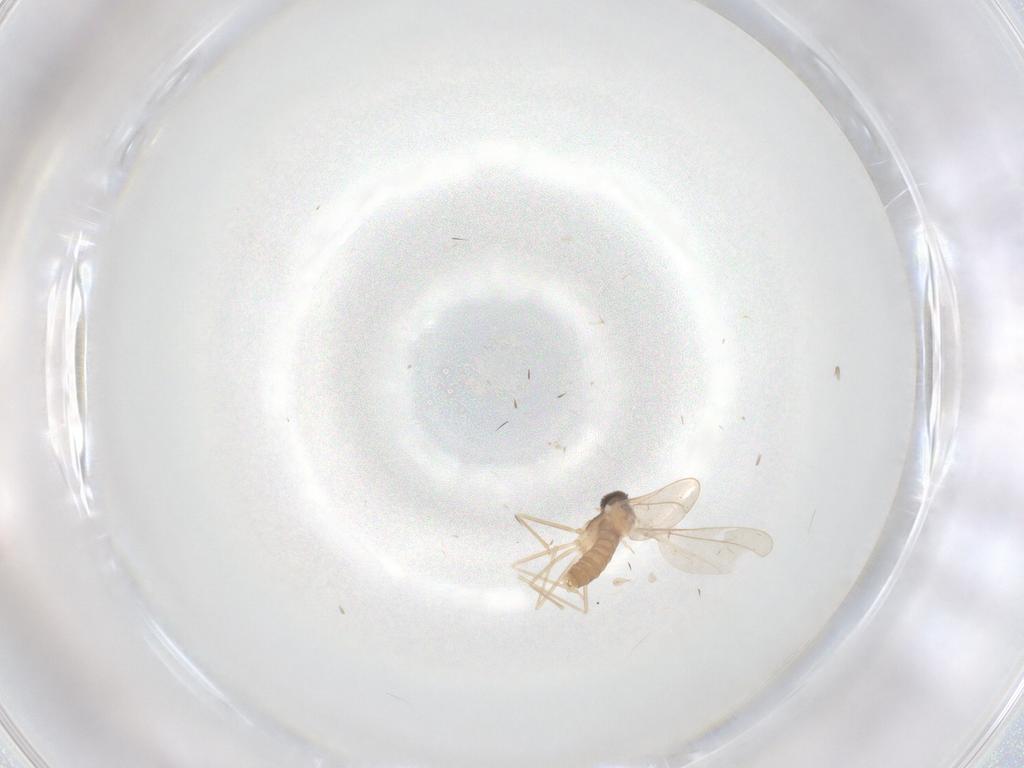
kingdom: Animalia
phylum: Arthropoda
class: Insecta
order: Diptera
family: Cecidomyiidae
